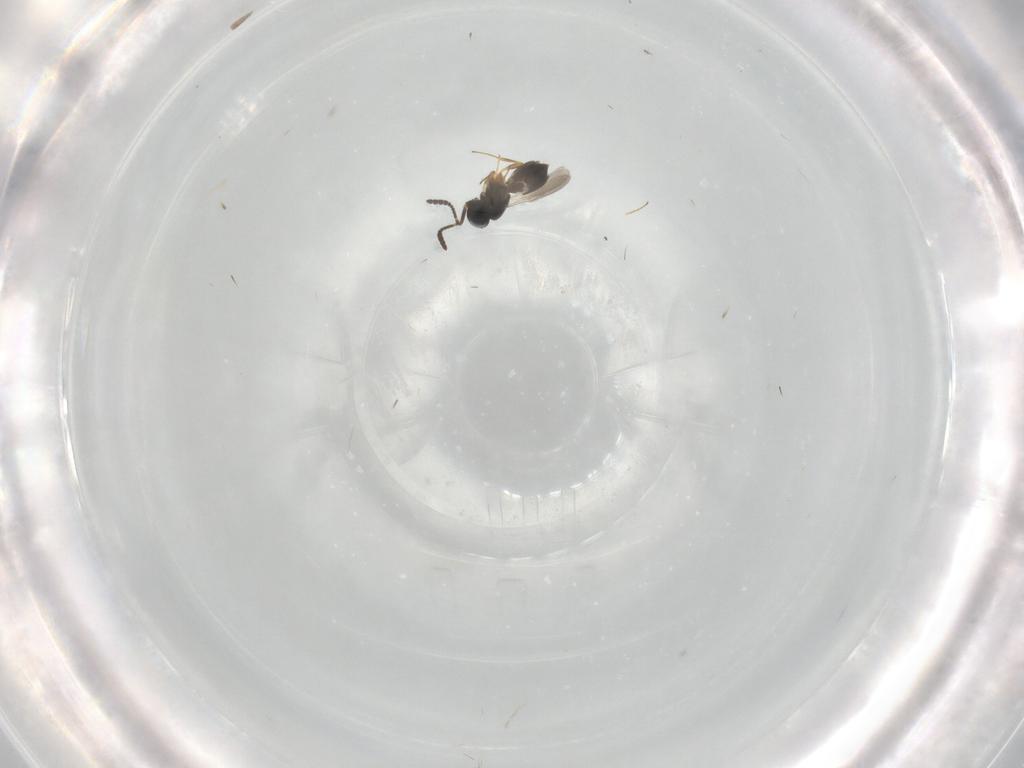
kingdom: Animalia
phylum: Arthropoda
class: Insecta
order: Hymenoptera
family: Scelionidae
